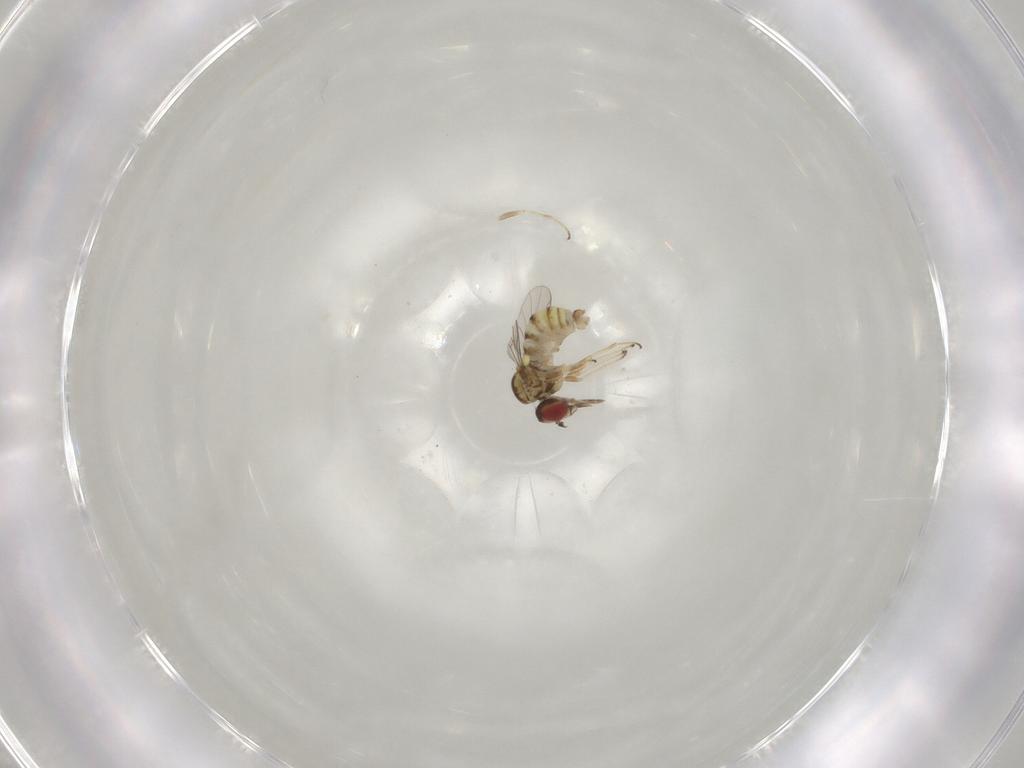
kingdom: Animalia
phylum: Arthropoda
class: Insecta
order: Diptera
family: Mythicomyiidae
